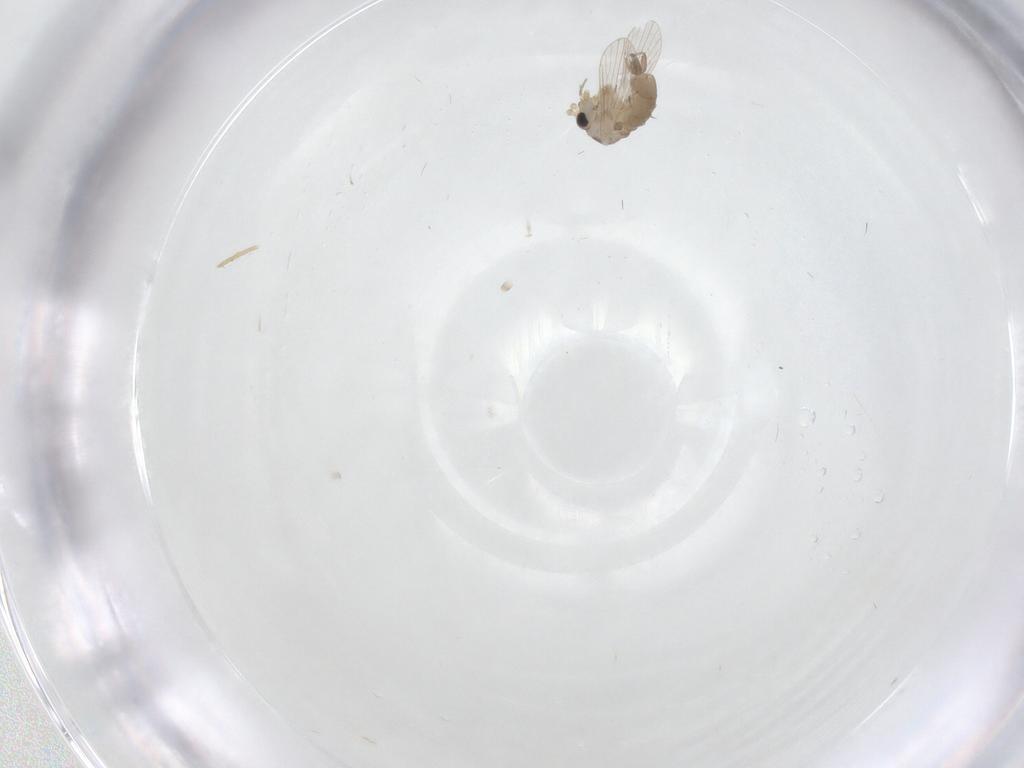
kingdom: Animalia
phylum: Arthropoda
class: Insecta
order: Diptera
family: Psychodidae
